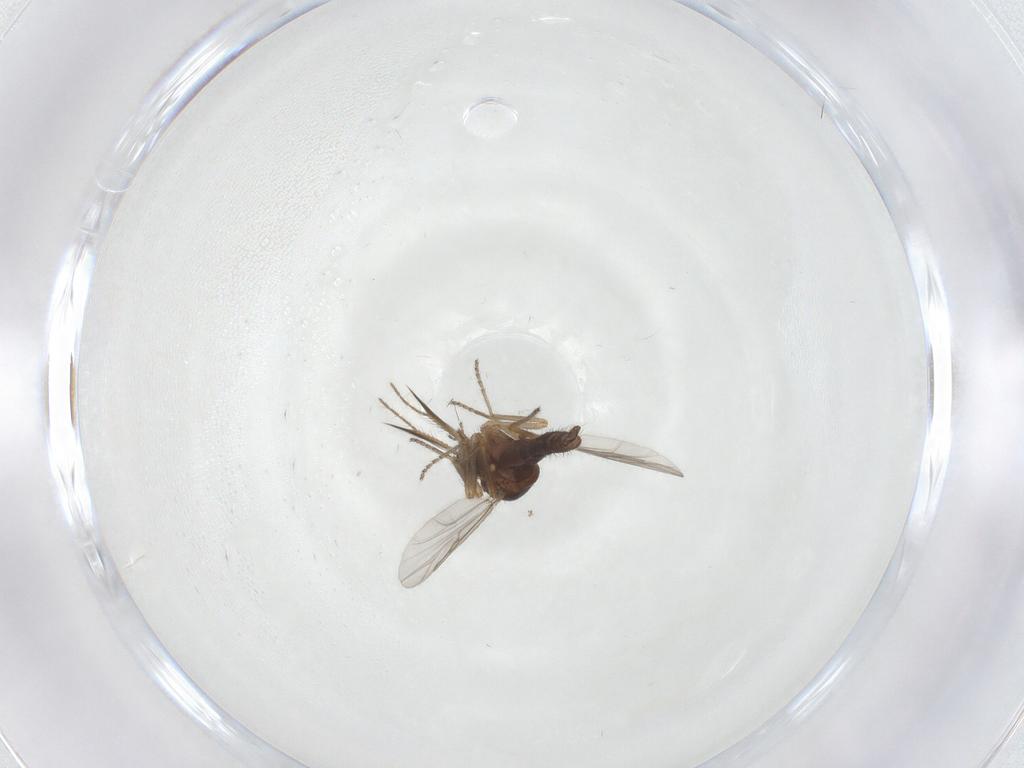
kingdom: Animalia
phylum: Arthropoda
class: Insecta
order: Diptera
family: Ceratopogonidae
